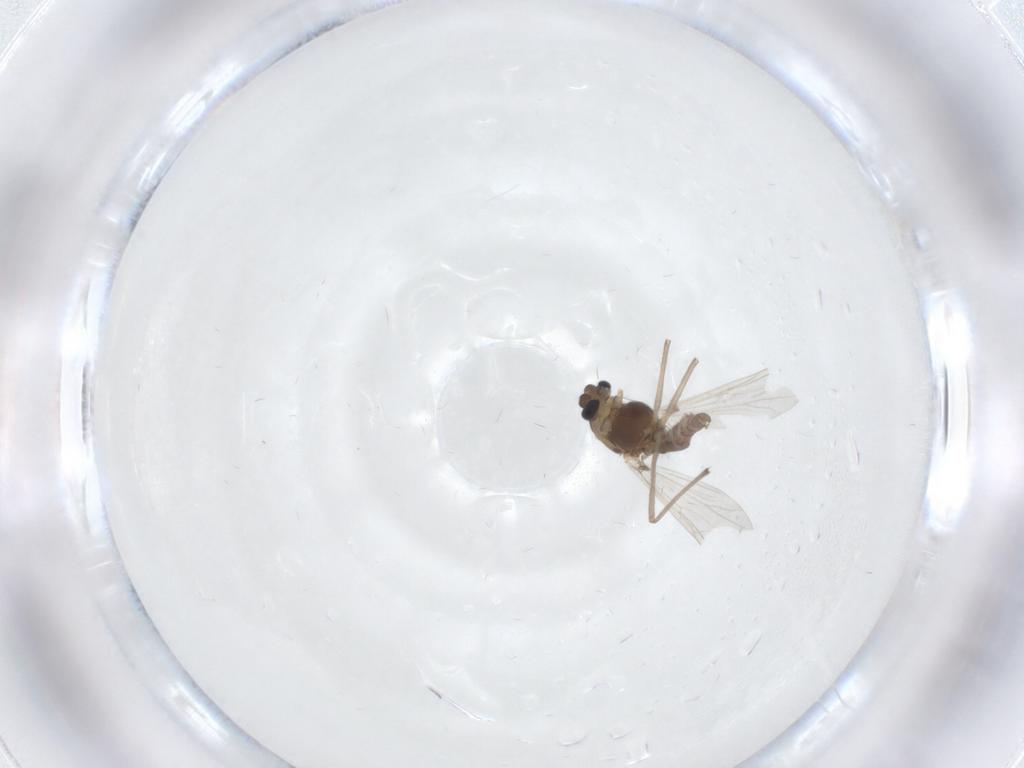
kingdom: Animalia
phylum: Arthropoda
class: Insecta
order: Diptera
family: Chironomidae
